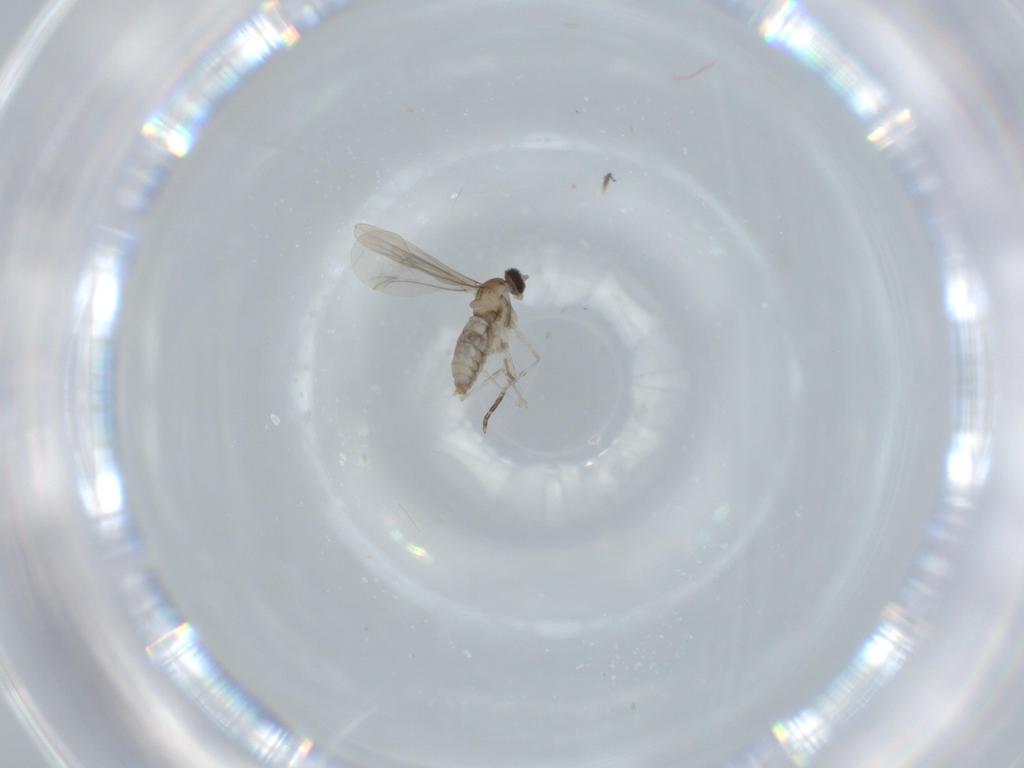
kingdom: Animalia
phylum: Arthropoda
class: Insecta
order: Diptera
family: Cecidomyiidae
